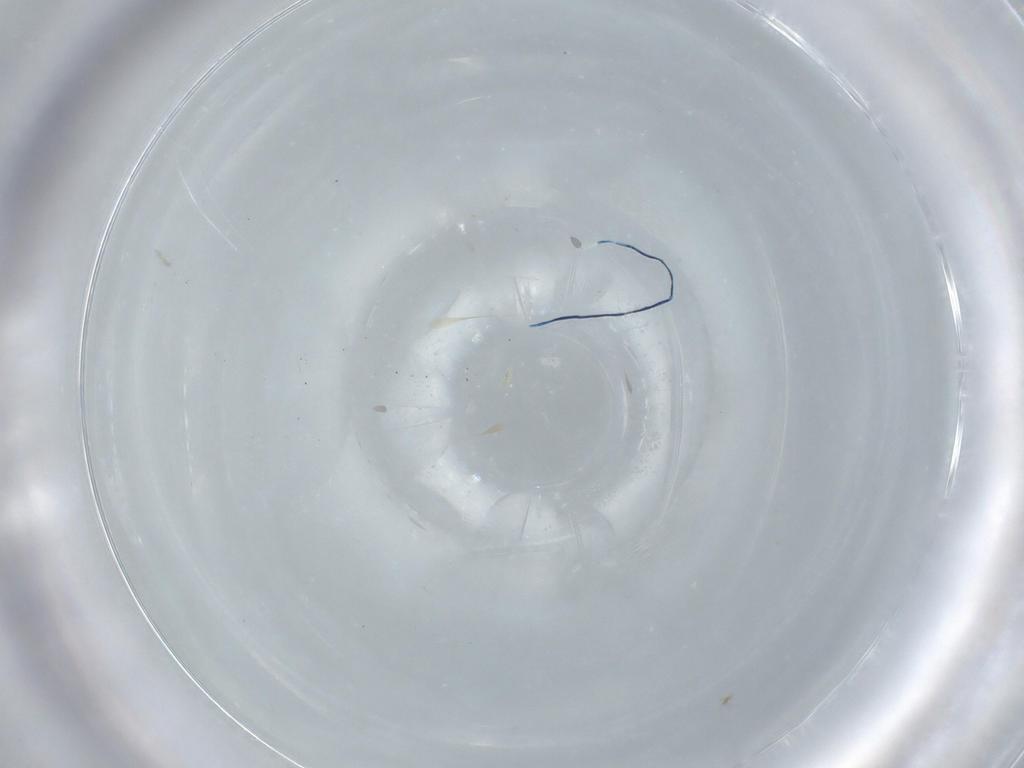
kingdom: Animalia
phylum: Arthropoda
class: Insecta
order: Diptera
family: Cecidomyiidae
